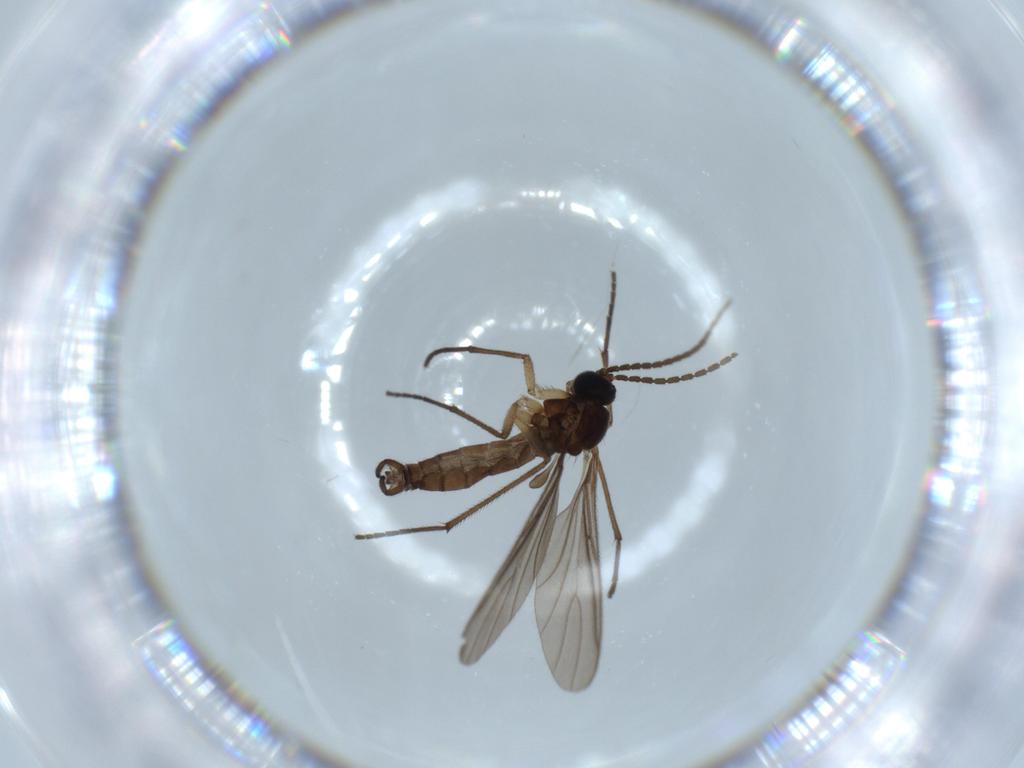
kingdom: Animalia
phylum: Arthropoda
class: Insecta
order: Diptera
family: Sciaridae
